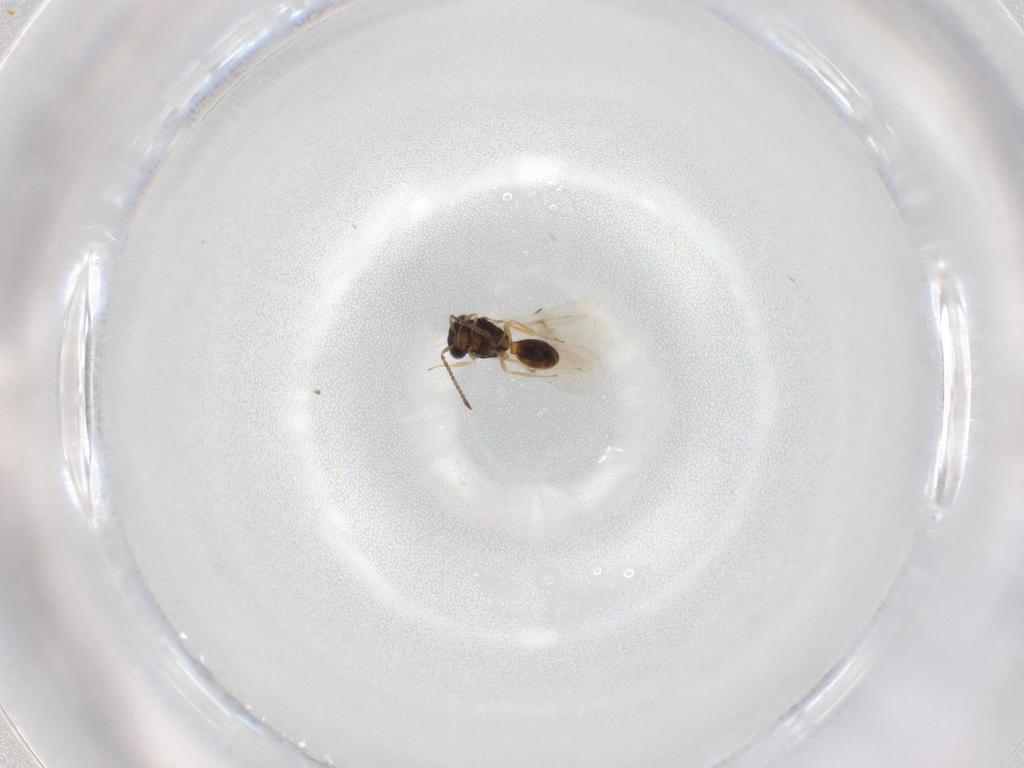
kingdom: Animalia
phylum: Arthropoda
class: Insecta
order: Hymenoptera
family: Scelionidae
